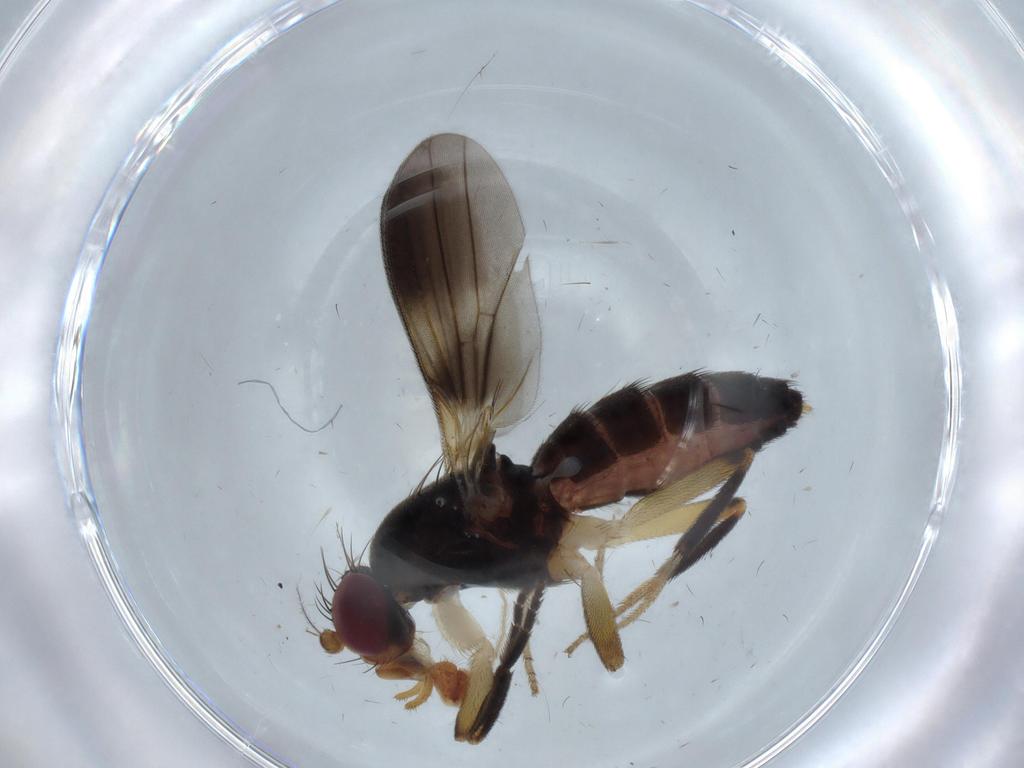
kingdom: Animalia
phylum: Arthropoda
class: Insecta
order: Diptera
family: Clusiidae
